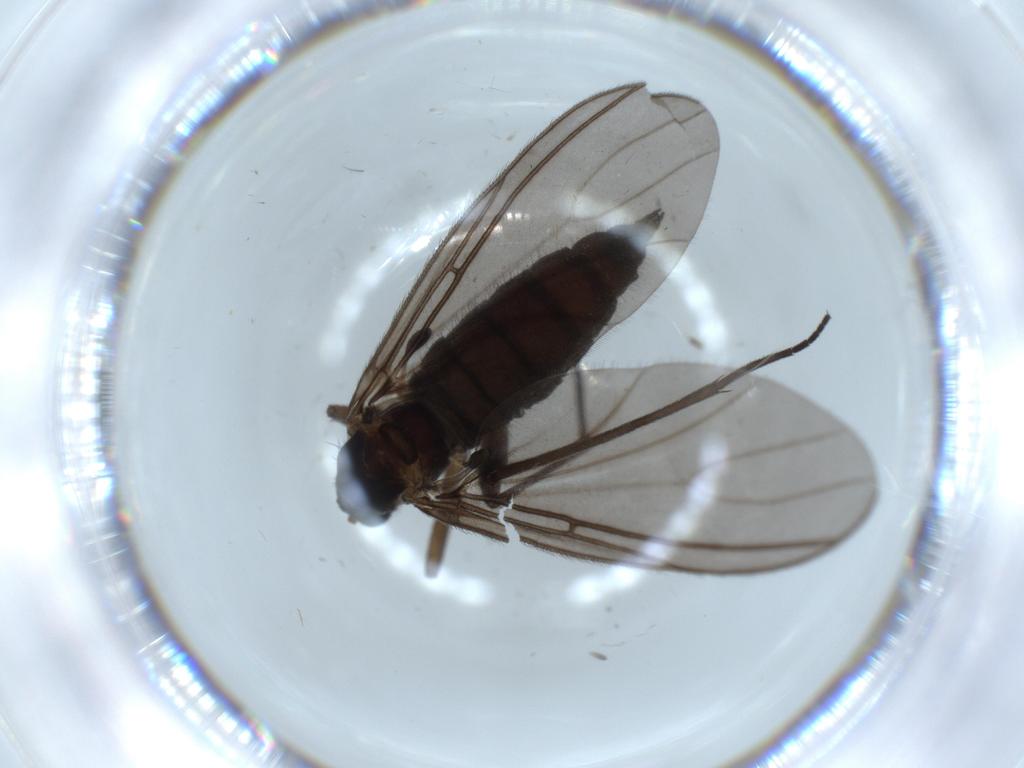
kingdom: Animalia
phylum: Arthropoda
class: Insecta
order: Diptera
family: Sciaridae
